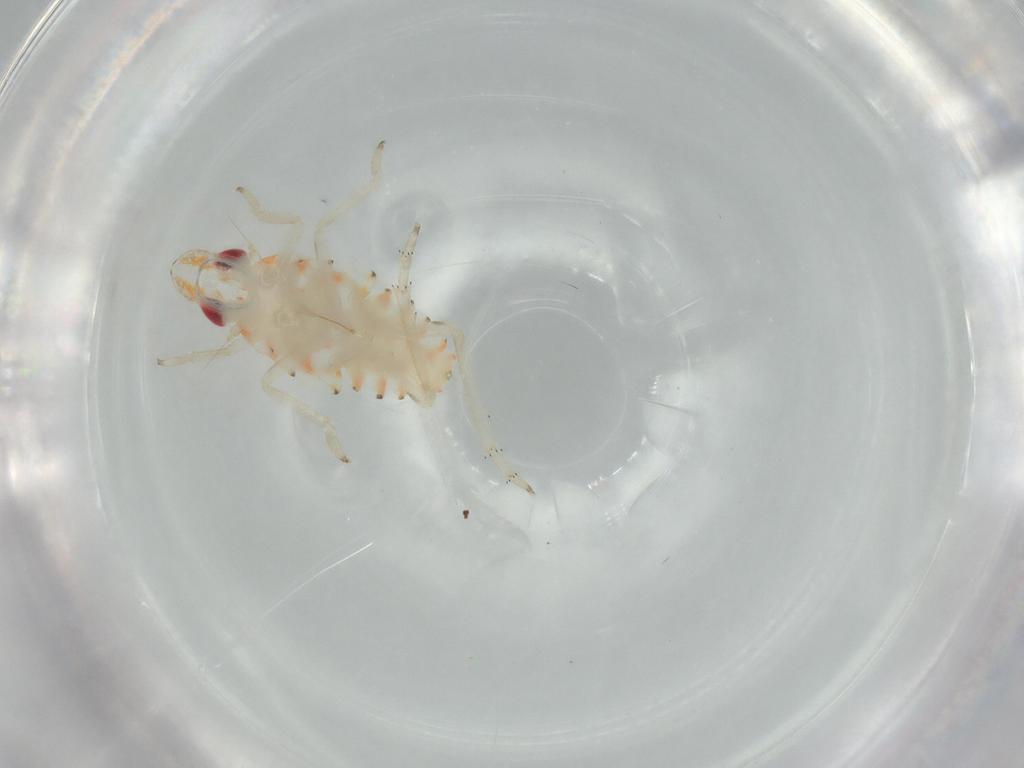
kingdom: Animalia
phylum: Arthropoda
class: Insecta
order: Hemiptera
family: Tropiduchidae
